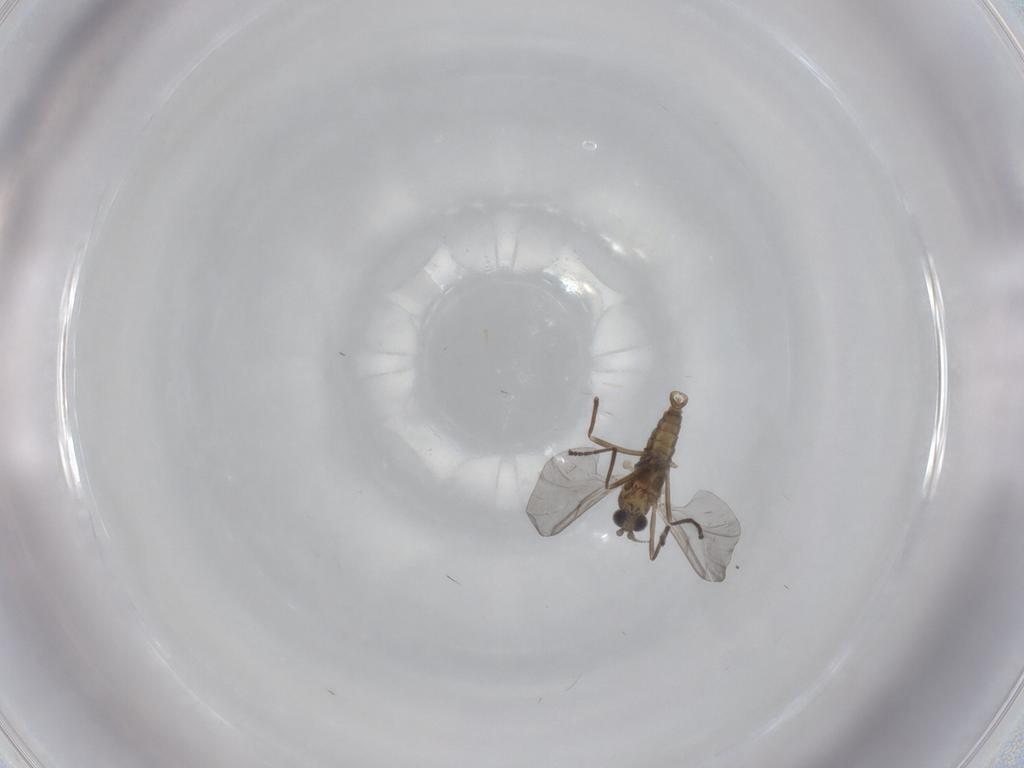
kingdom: Animalia
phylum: Arthropoda
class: Insecta
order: Diptera
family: Cecidomyiidae
